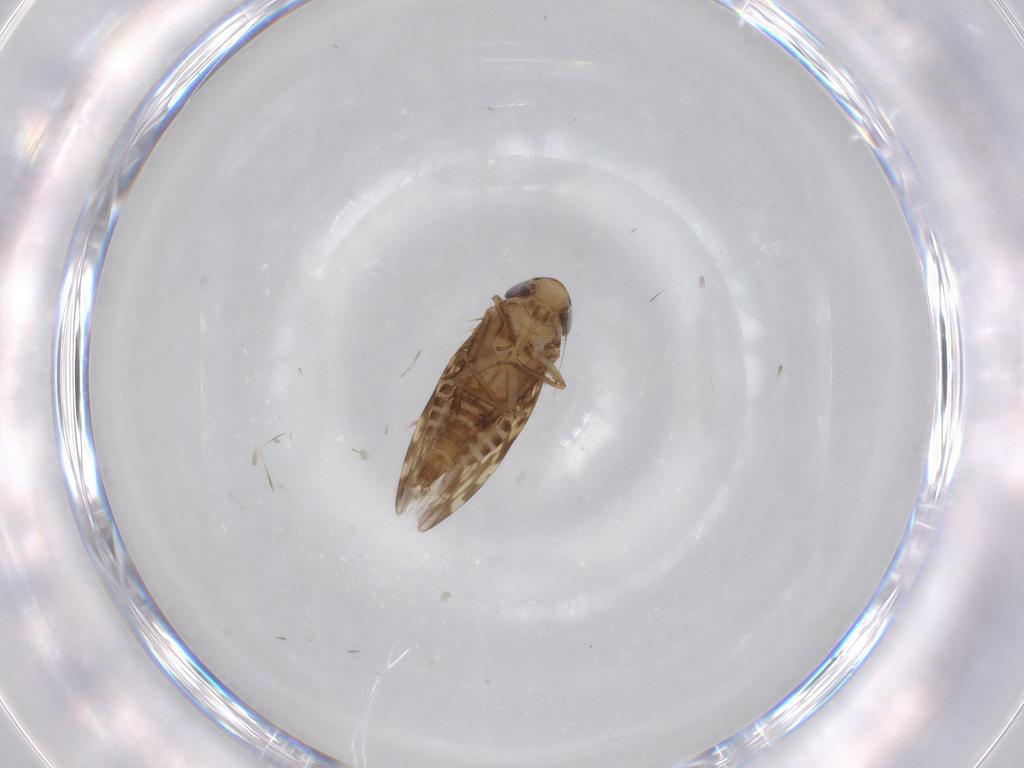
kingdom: Animalia
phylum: Arthropoda
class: Insecta
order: Hemiptera
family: Cicadellidae
